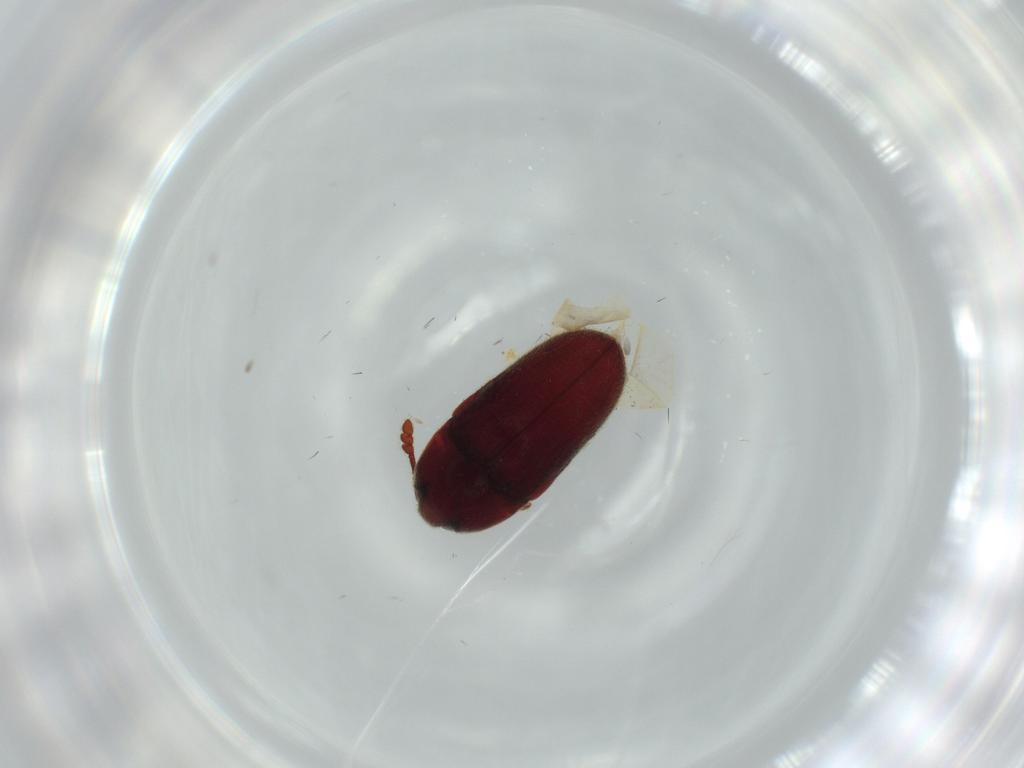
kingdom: Animalia
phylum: Arthropoda
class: Insecta
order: Coleoptera
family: Throscidae
